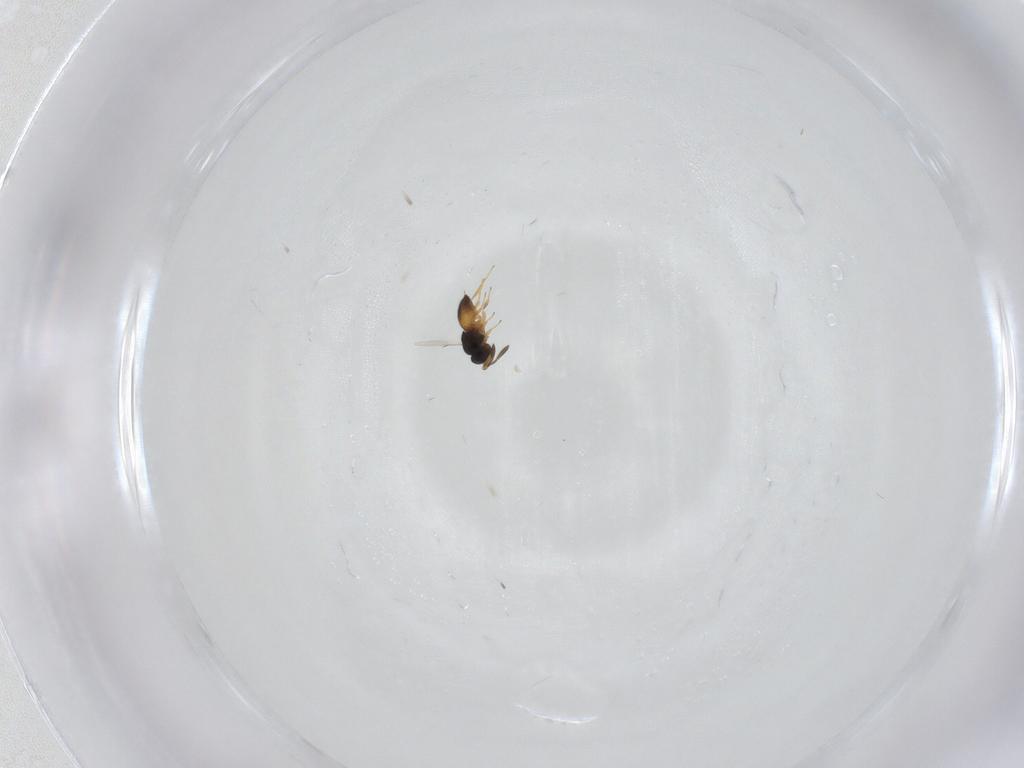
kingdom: Animalia
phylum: Arthropoda
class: Insecta
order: Hymenoptera
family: Scelionidae
